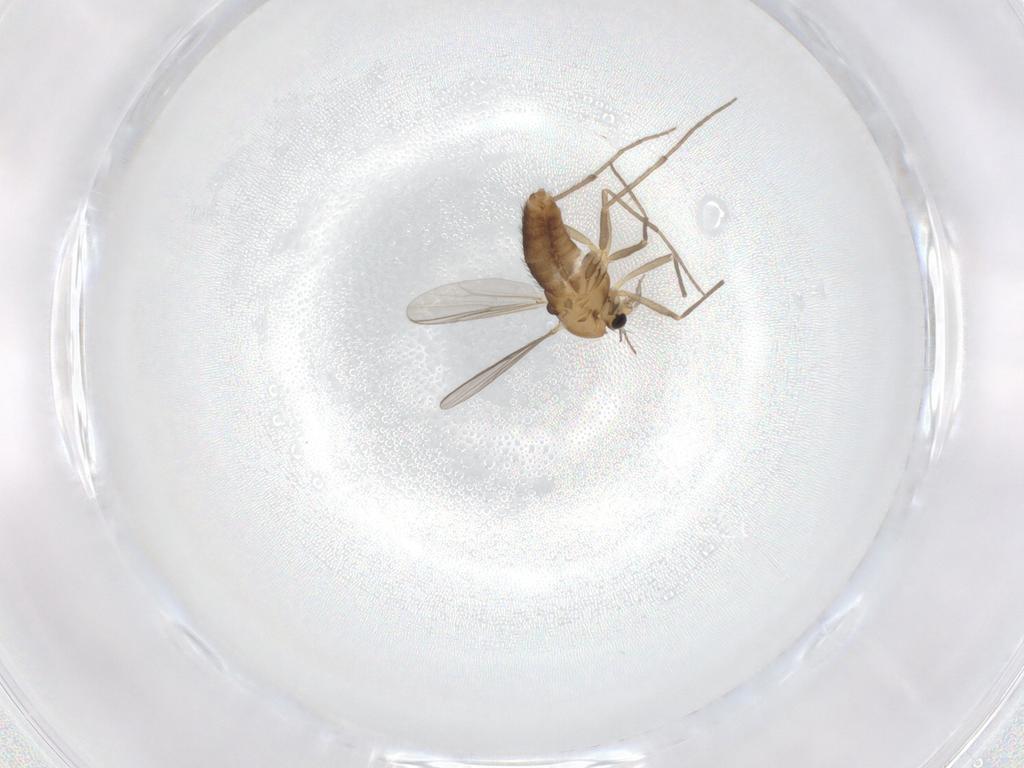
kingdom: Animalia
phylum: Arthropoda
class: Insecta
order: Diptera
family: Chironomidae
